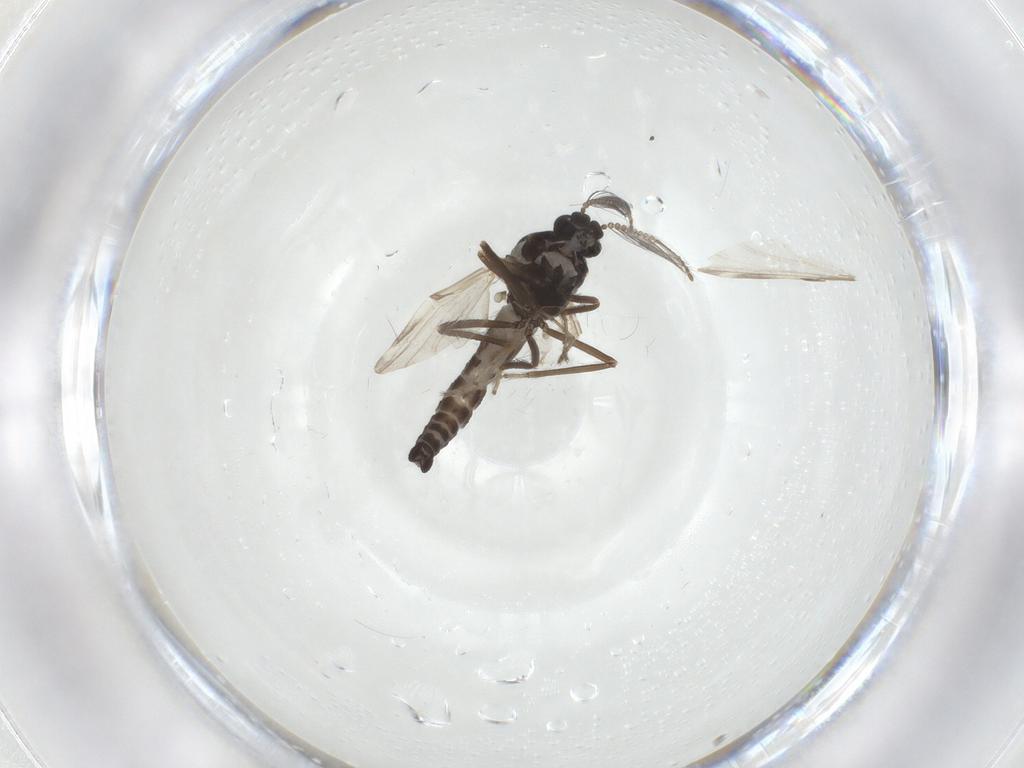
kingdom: Animalia
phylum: Arthropoda
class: Insecta
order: Diptera
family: Ceratopogonidae
